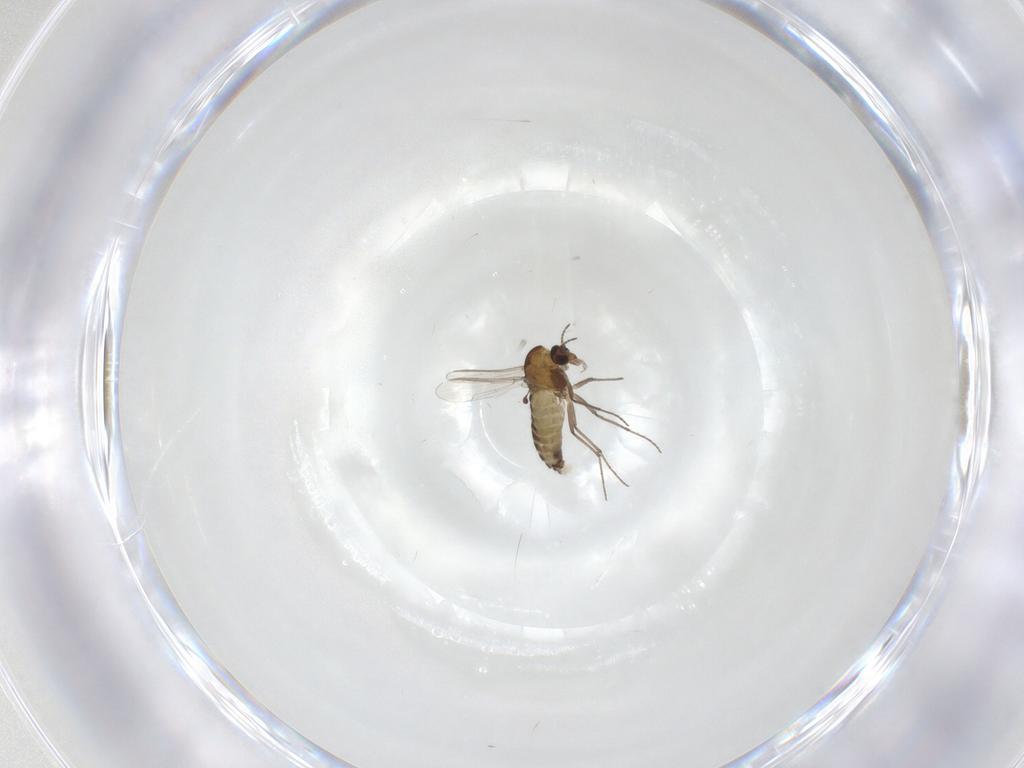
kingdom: Animalia
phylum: Arthropoda
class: Insecta
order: Diptera
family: Chironomidae
